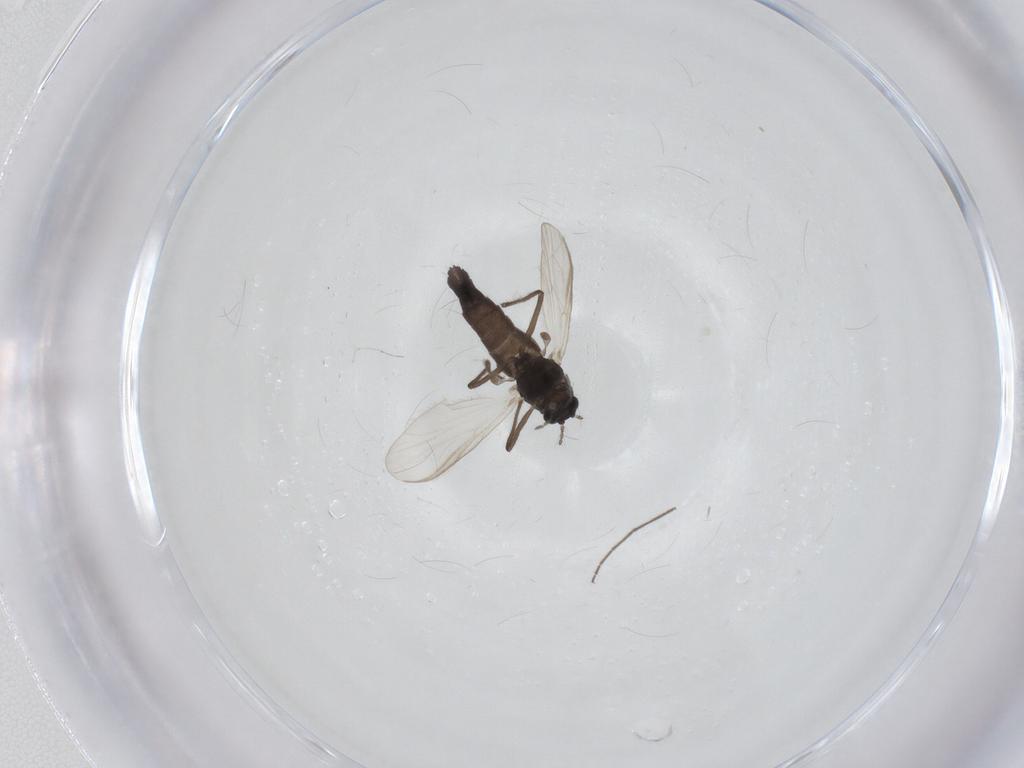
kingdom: Animalia
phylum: Arthropoda
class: Insecta
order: Diptera
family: Chironomidae
